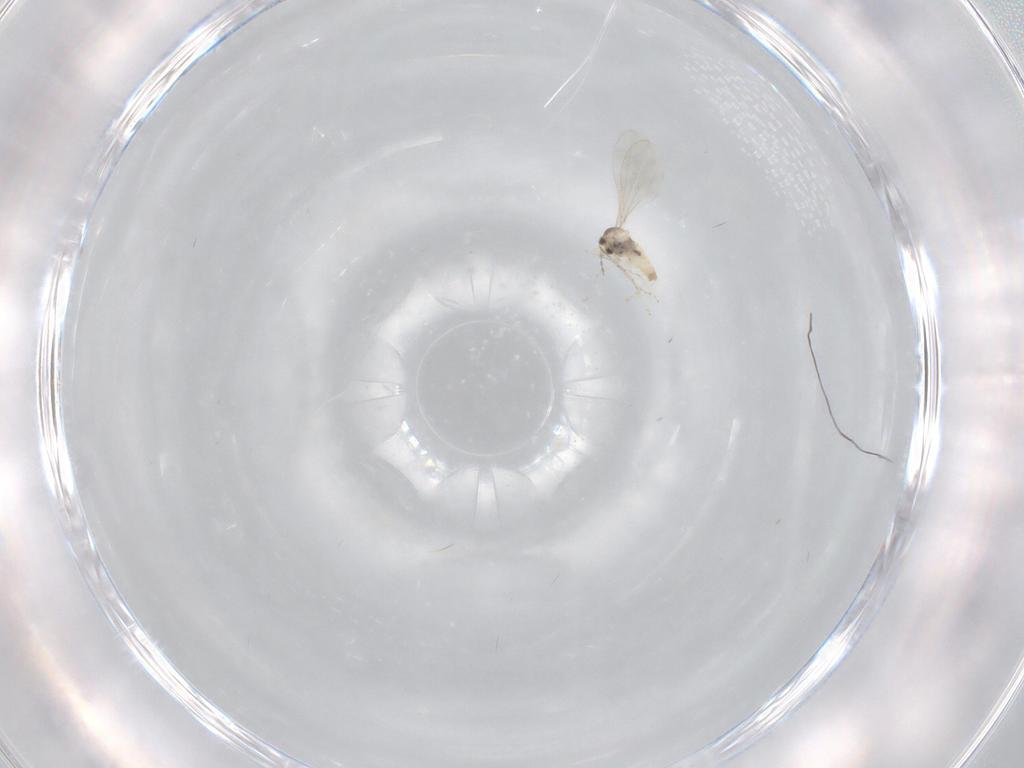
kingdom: Animalia
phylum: Arthropoda
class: Insecta
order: Diptera
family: Cecidomyiidae
